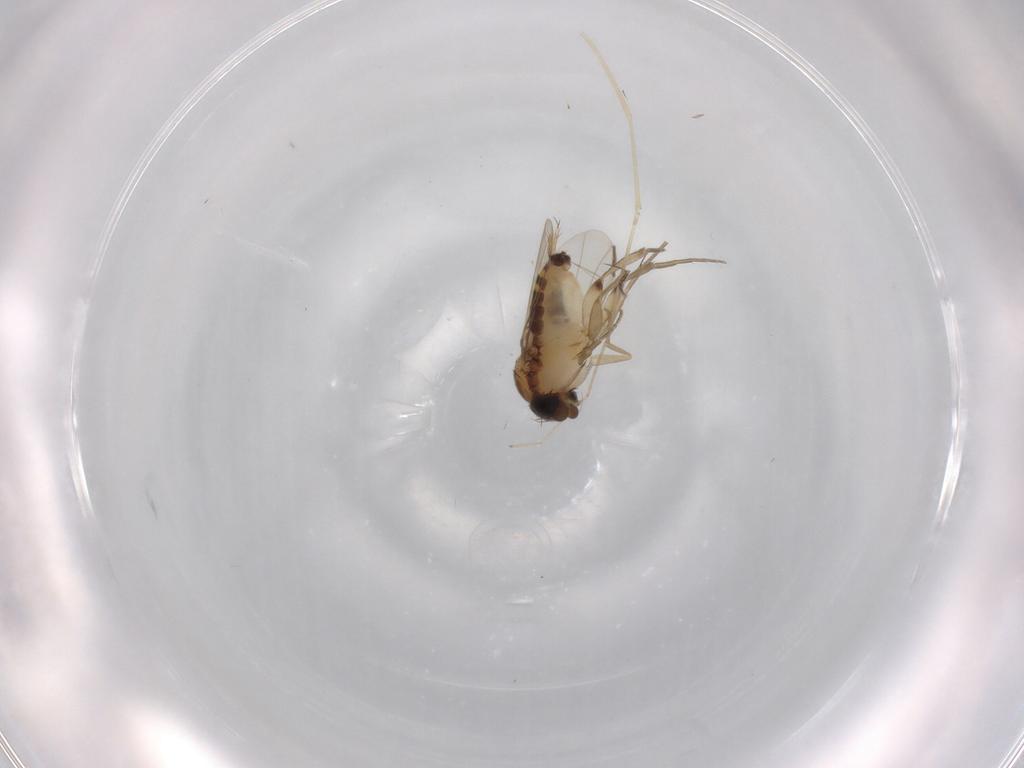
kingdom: Animalia
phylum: Arthropoda
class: Insecta
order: Diptera
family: Phoridae
